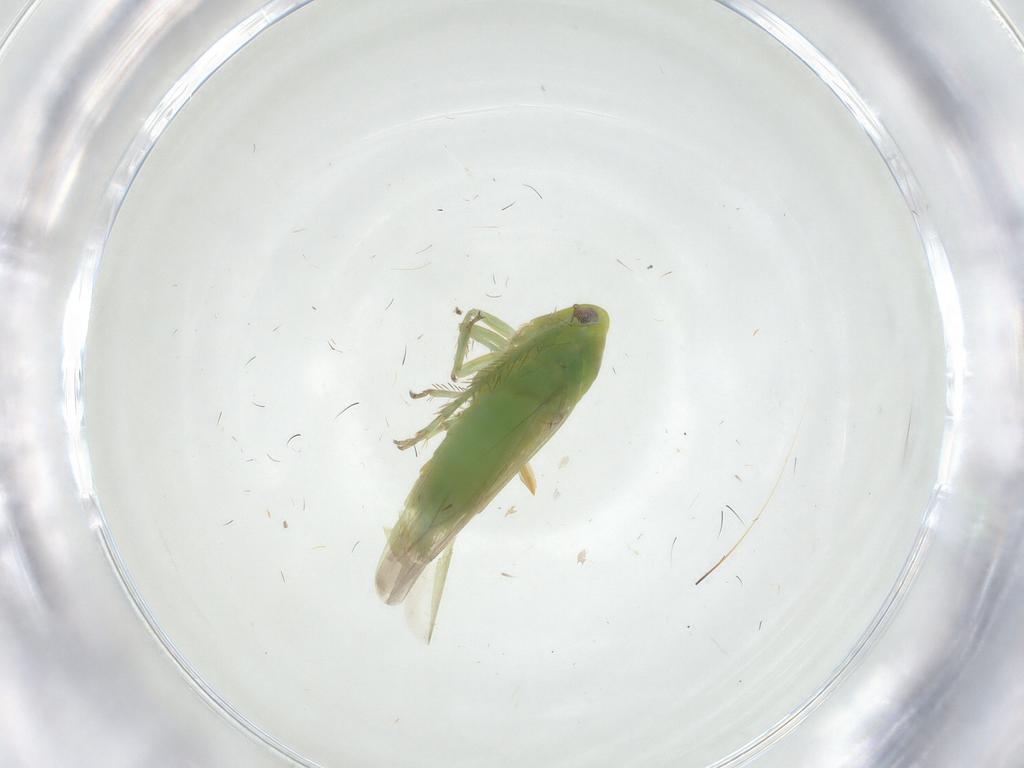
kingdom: Animalia
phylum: Arthropoda
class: Insecta
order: Hemiptera
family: Cicadellidae
